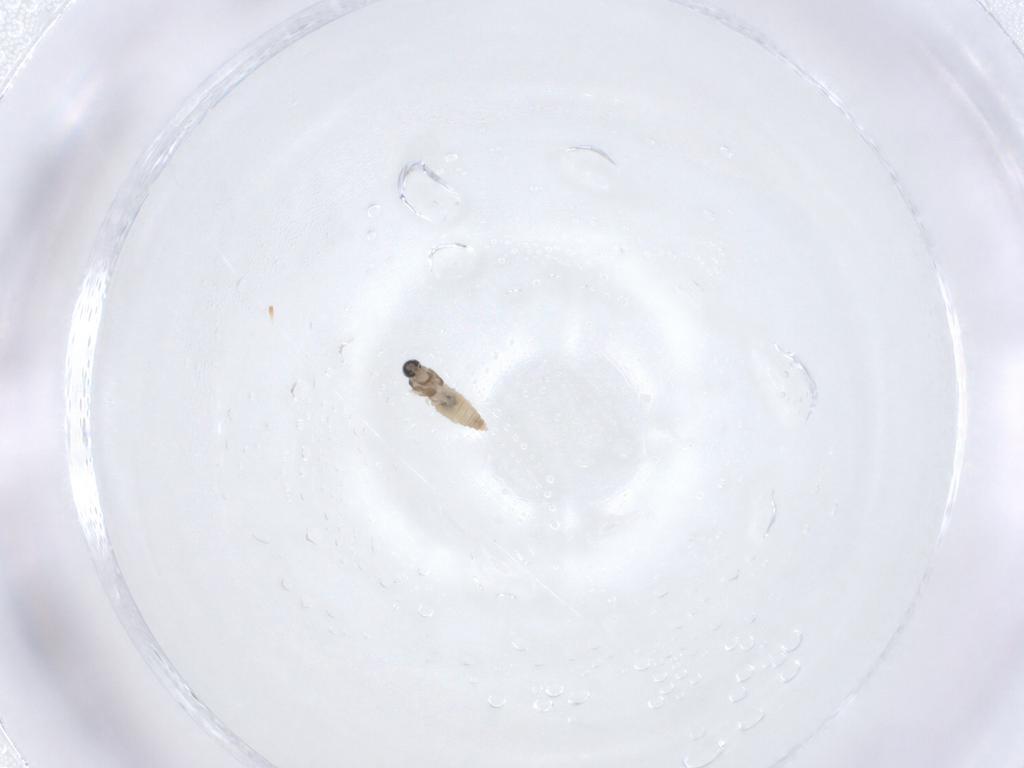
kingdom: Animalia
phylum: Arthropoda
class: Insecta
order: Diptera
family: Cecidomyiidae
